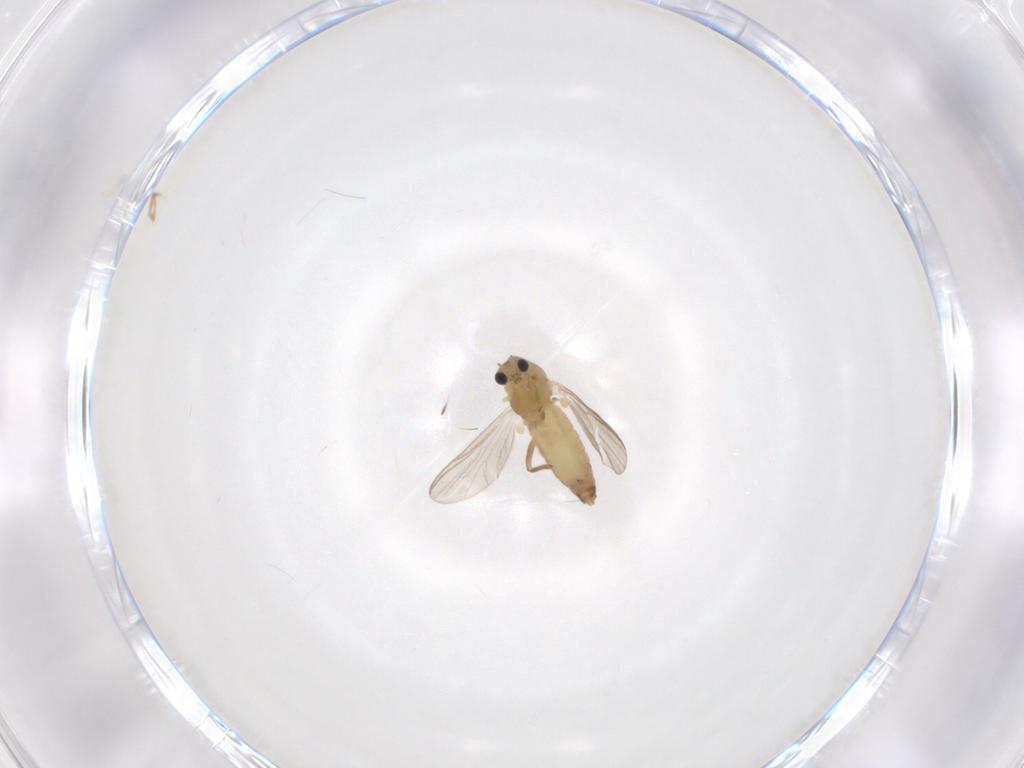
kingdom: Animalia
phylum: Arthropoda
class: Insecta
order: Diptera
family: Chironomidae
